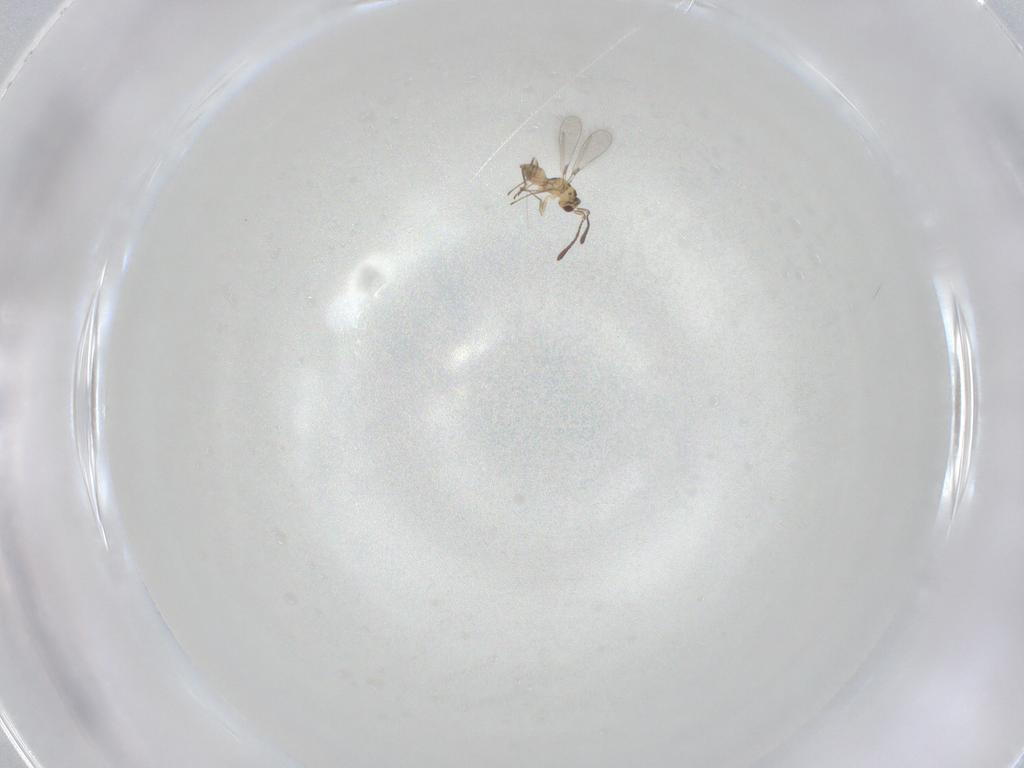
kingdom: Animalia
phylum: Arthropoda
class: Insecta
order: Hymenoptera
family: Mymaridae
